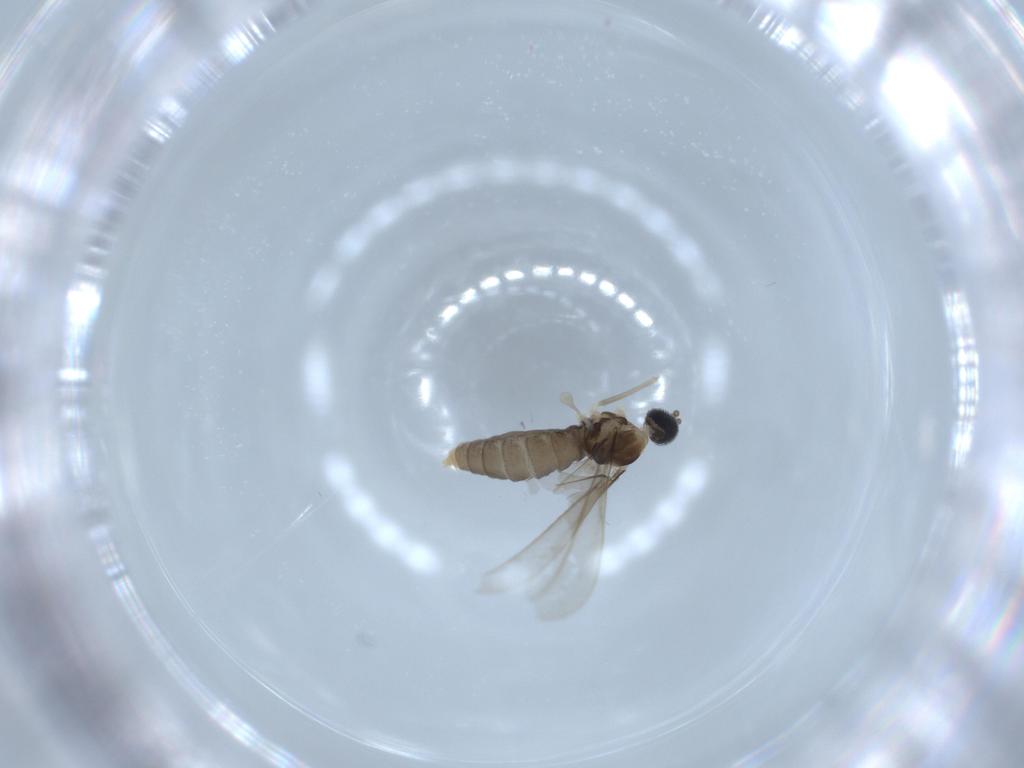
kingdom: Animalia
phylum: Arthropoda
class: Insecta
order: Diptera
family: Cecidomyiidae
